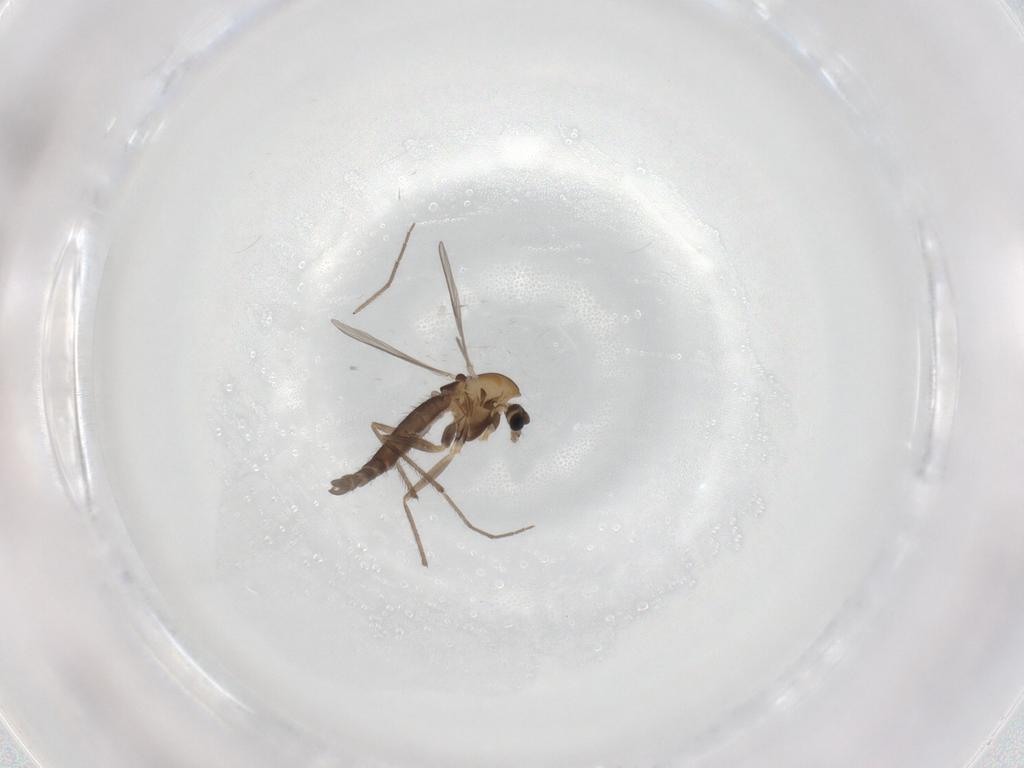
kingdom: Animalia
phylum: Arthropoda
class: Insecta
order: Diptera
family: Chironomidae
